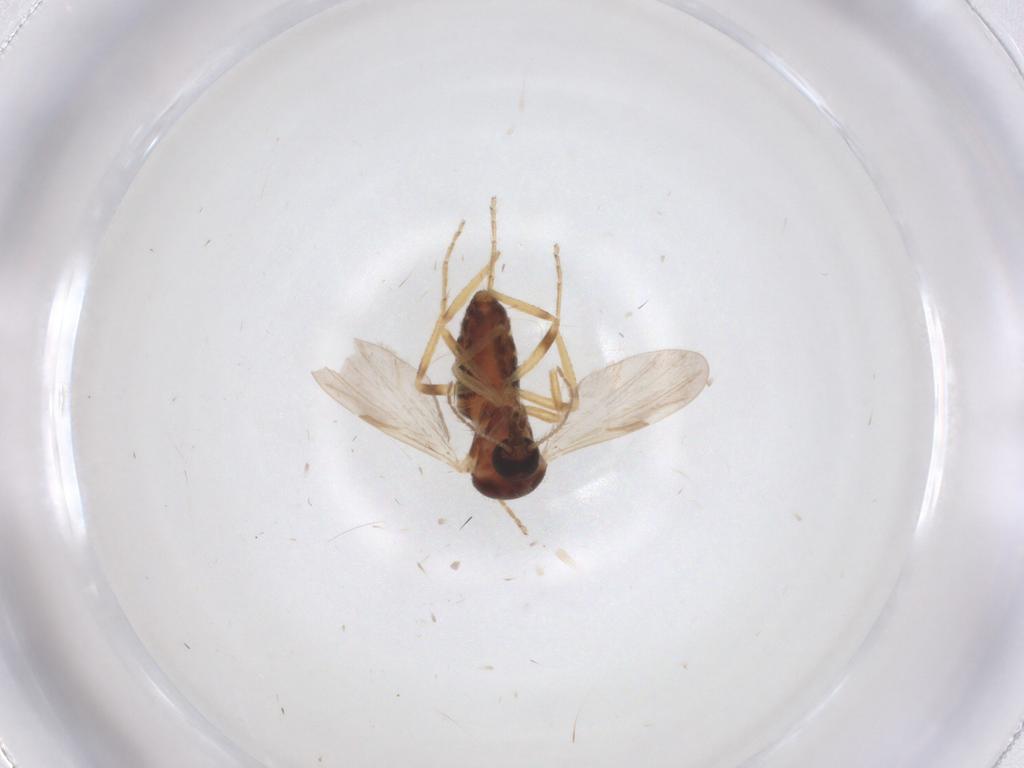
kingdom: Animalia
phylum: Arthropoda
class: Insecta
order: Diptera
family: Ceratopogonidae
